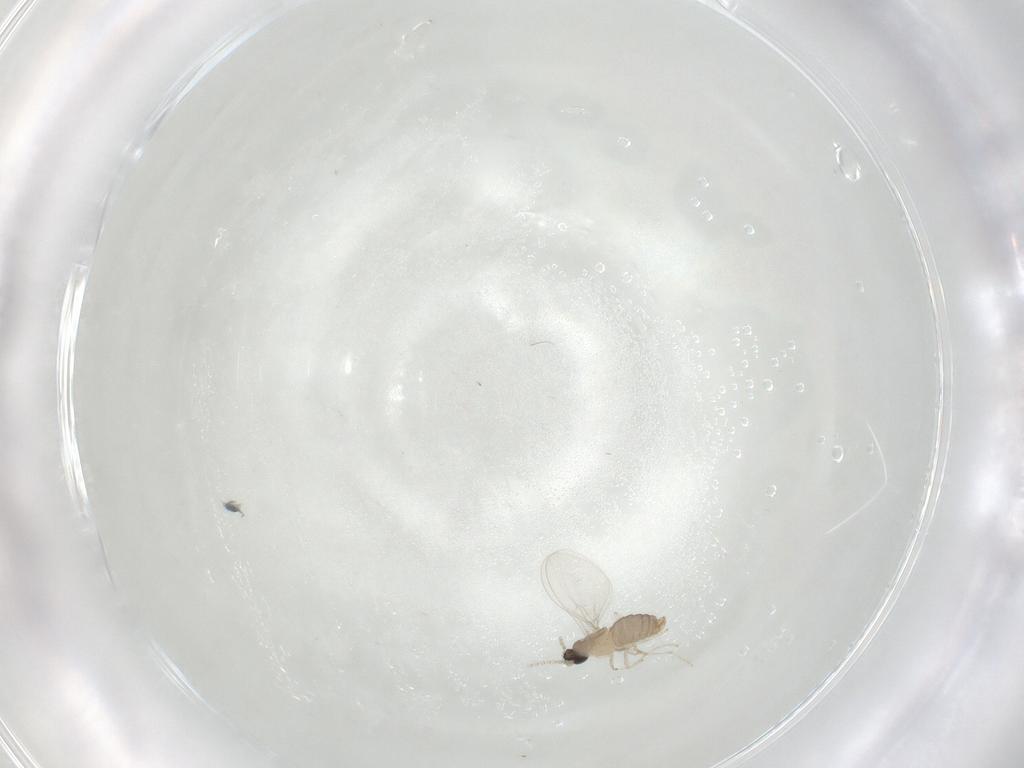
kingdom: Animalia
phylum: Arthropoda
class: Insecta
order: Diptera
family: Cecidomyiidae
